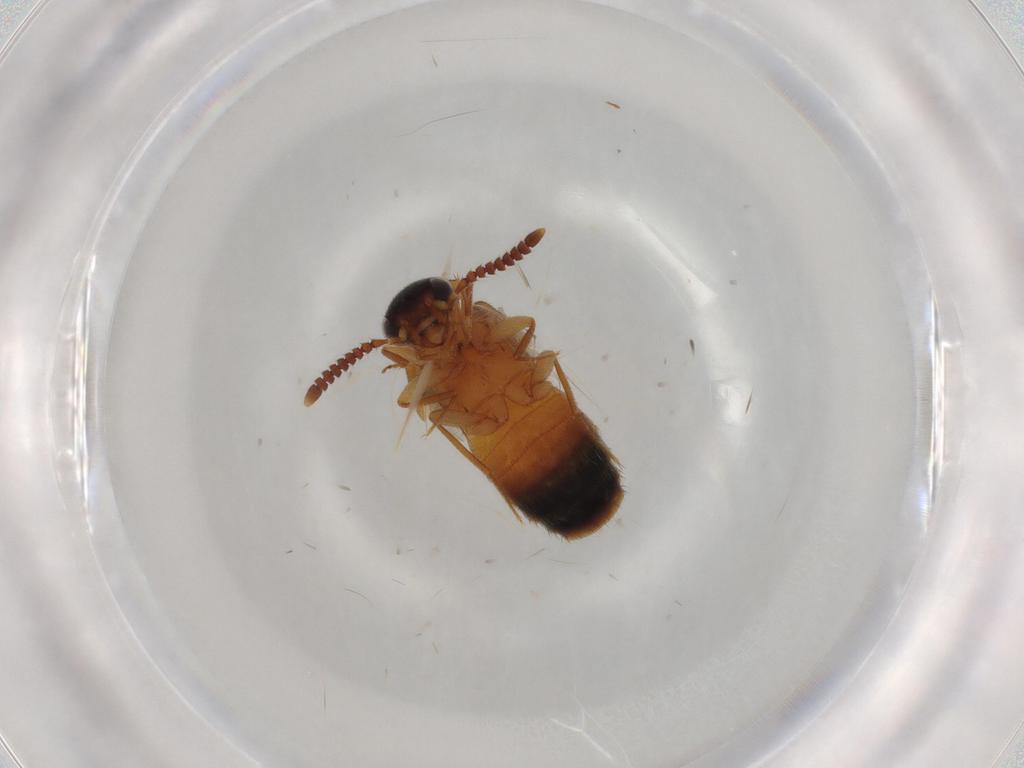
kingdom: Animalia
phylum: Arthropoda
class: Insecta
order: Coleoptera
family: Staphylinidae
